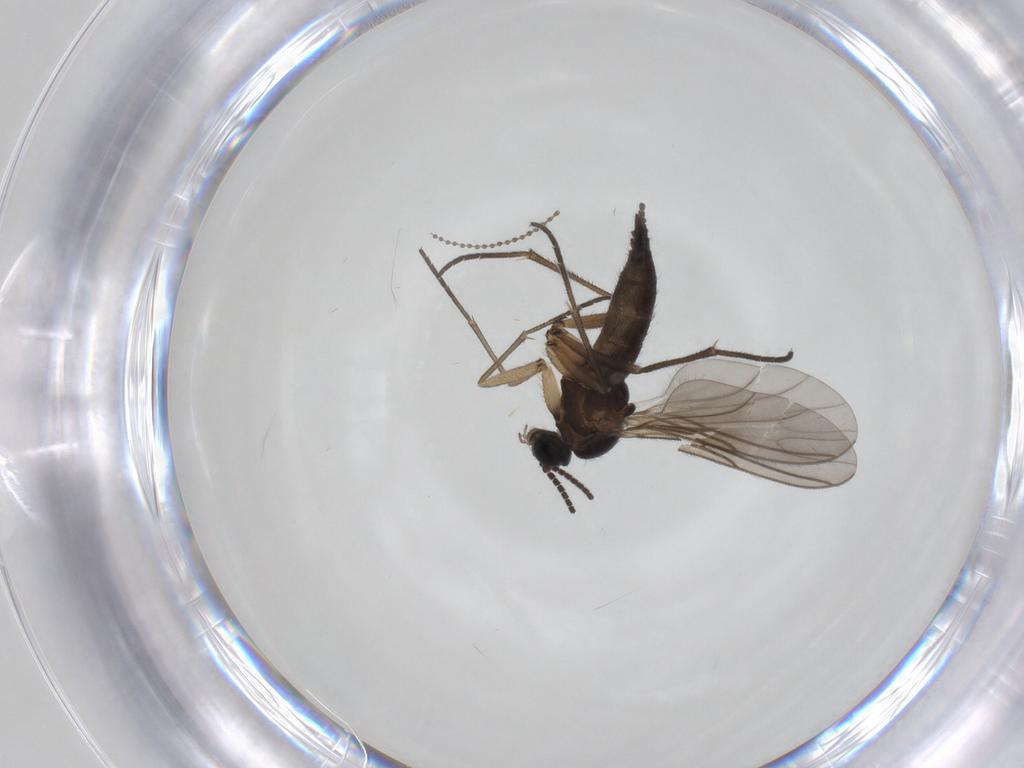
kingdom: Animalia
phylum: Arthropoda
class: Insecta
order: Diptera
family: Sciaridae
